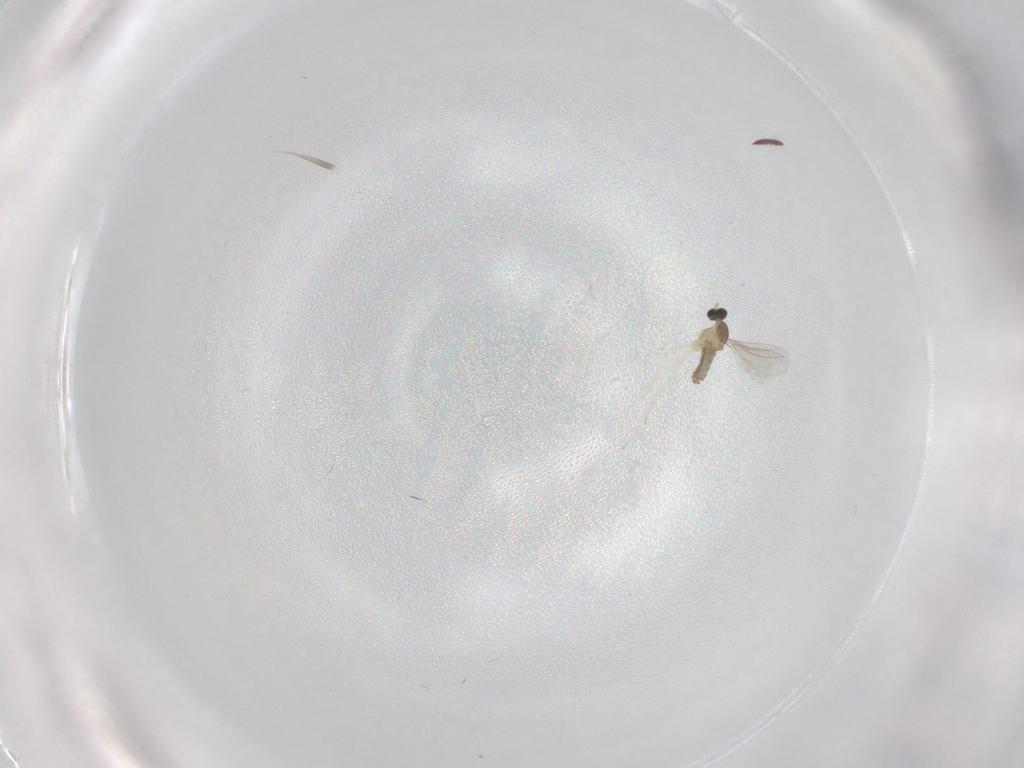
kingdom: Animalia
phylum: Arthropoda
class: Insecta
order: Diptera
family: Cecidomyiidae
